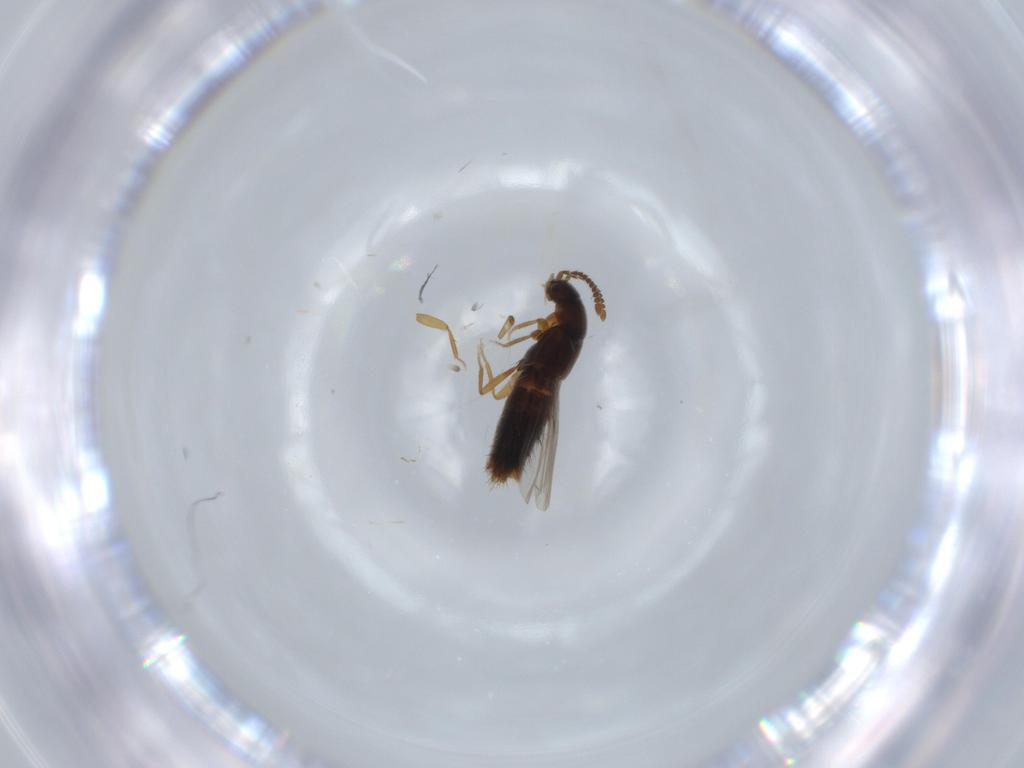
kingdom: Animalia
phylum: Arthropoda
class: Insecta
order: Coleoptera
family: Staphylinidae
